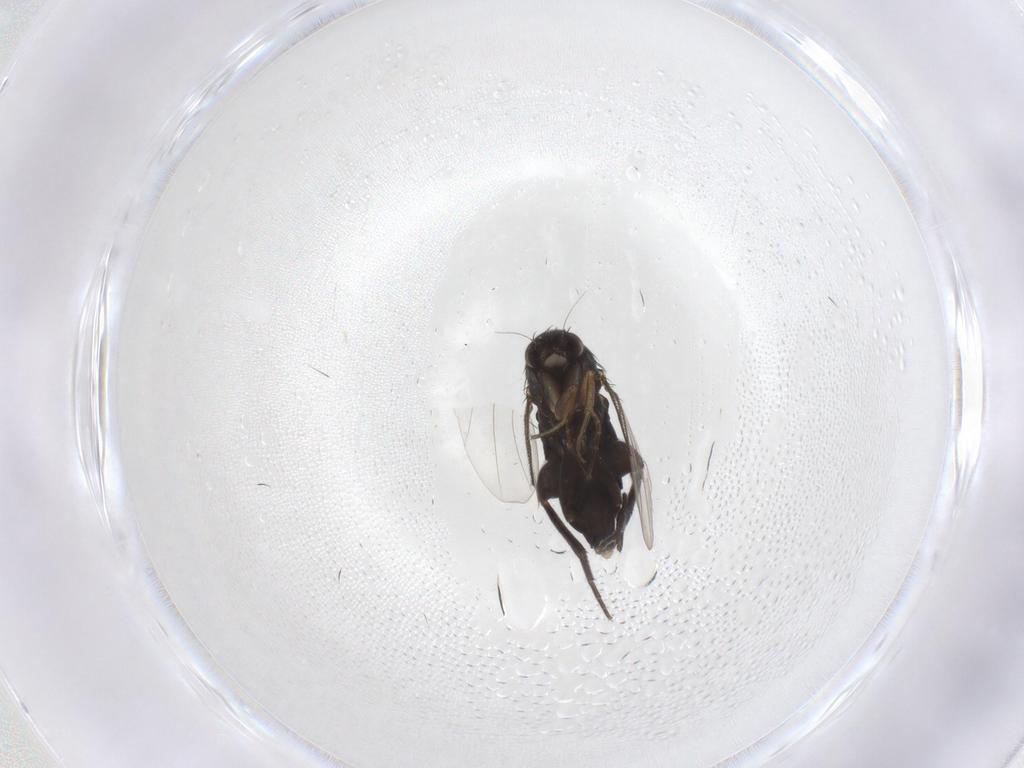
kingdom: Animalia
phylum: Arthropoda
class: Insecta
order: Diptera
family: Phoridae
